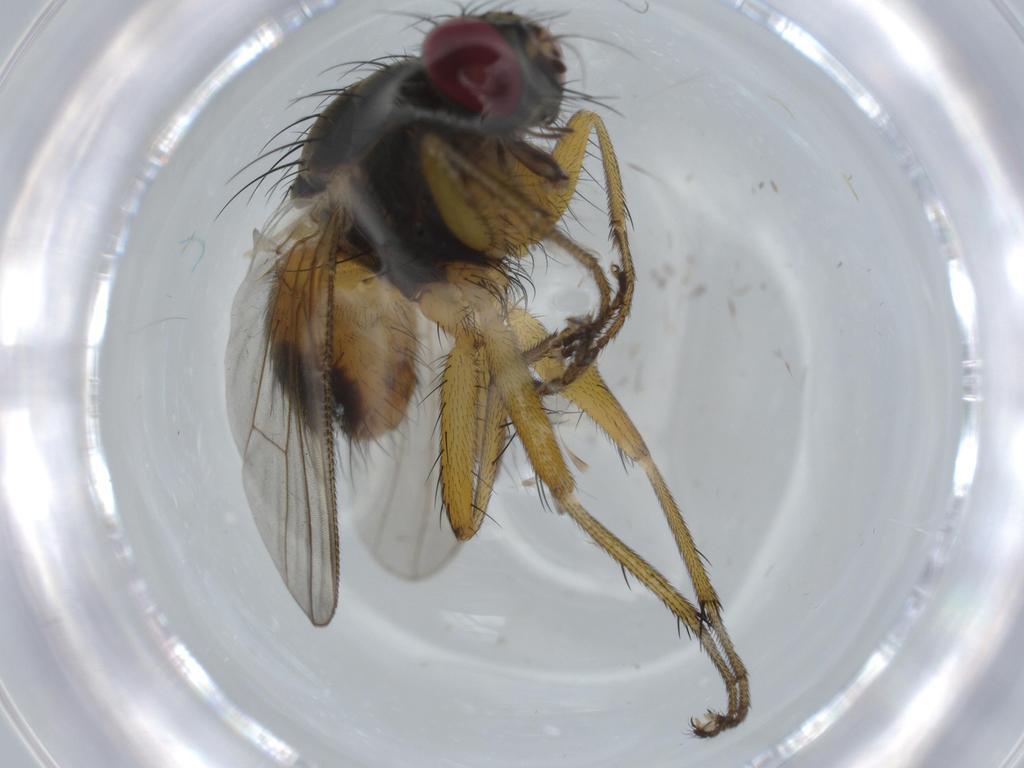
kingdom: Animalia
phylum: Arthropoda
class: Insecta
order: Diptera
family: Muscidae
